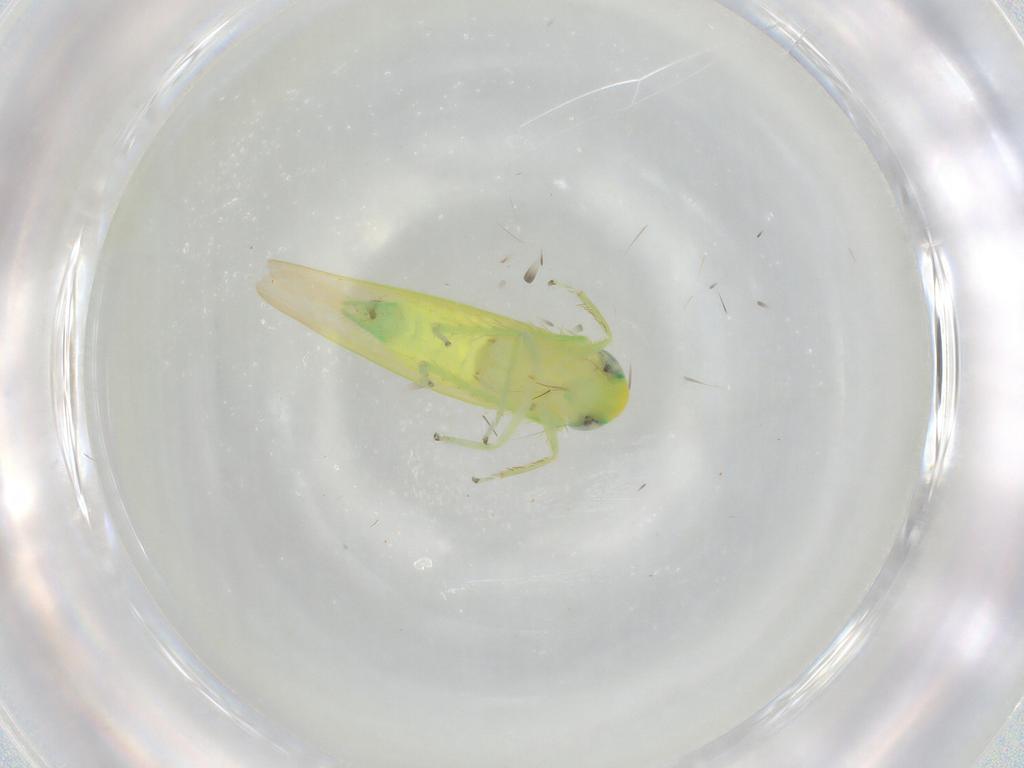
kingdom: Animalia
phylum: Arthropoda
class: Insecta
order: Hemiptera
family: Cicadellidae
